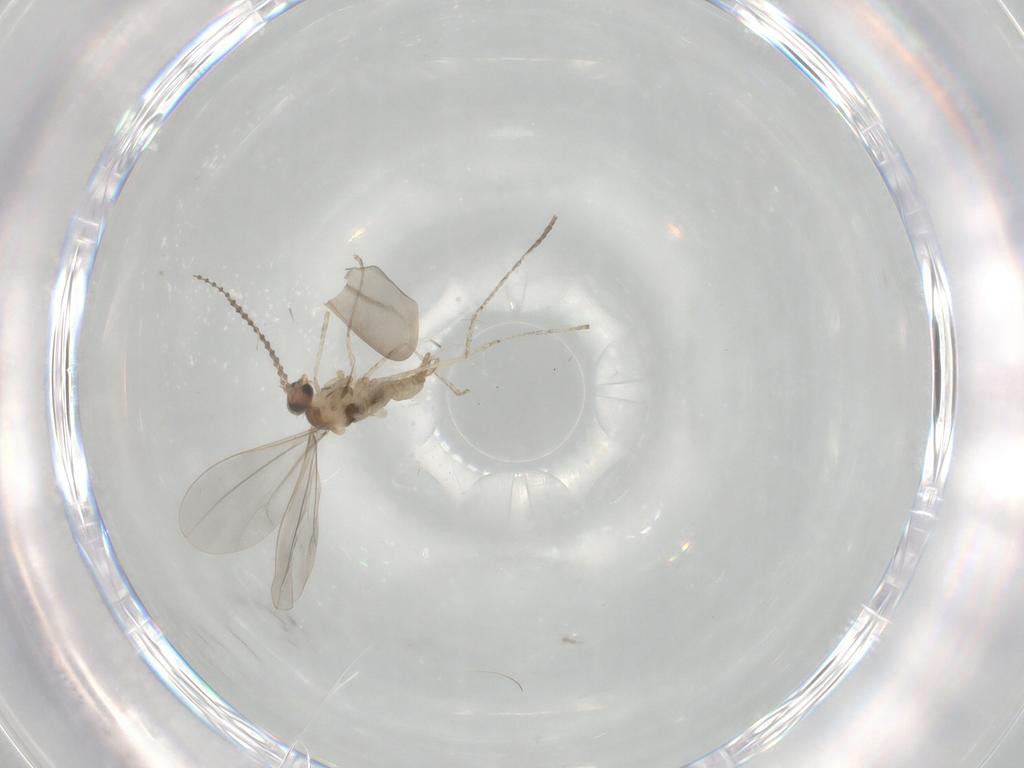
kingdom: Animalia
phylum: Arthropoda
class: Insecta
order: Diptera
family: Cecidomyiidae
